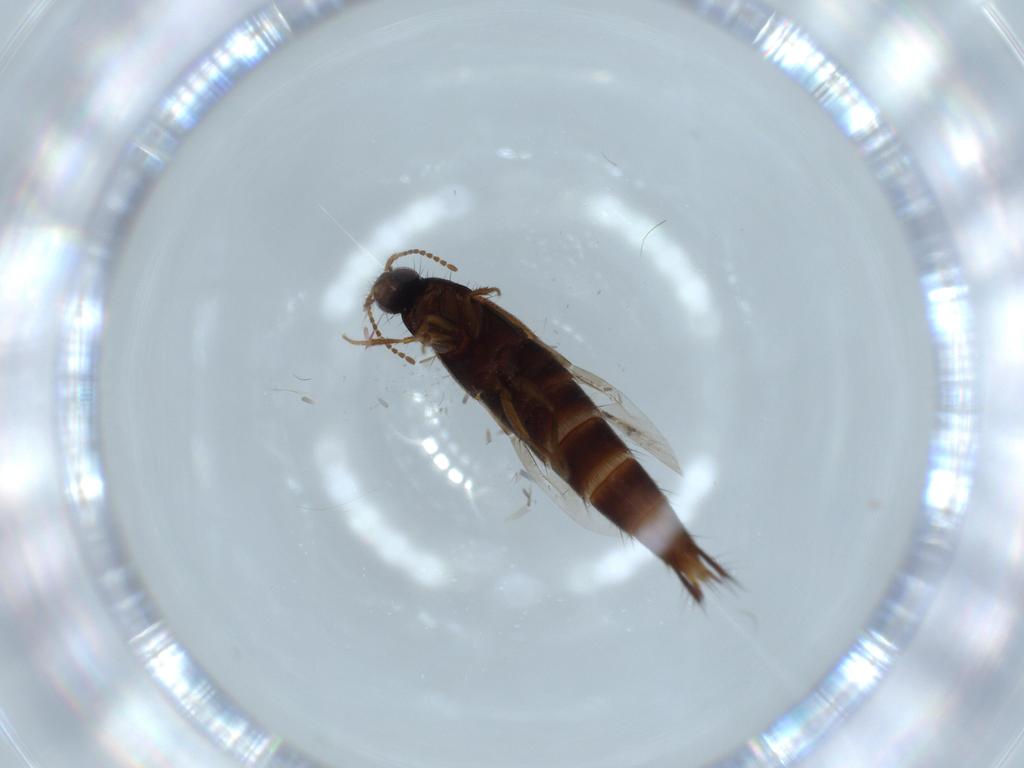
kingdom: Animalia
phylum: Arthropoda
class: Insecta
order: Coleoptera
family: Staphylinidae
